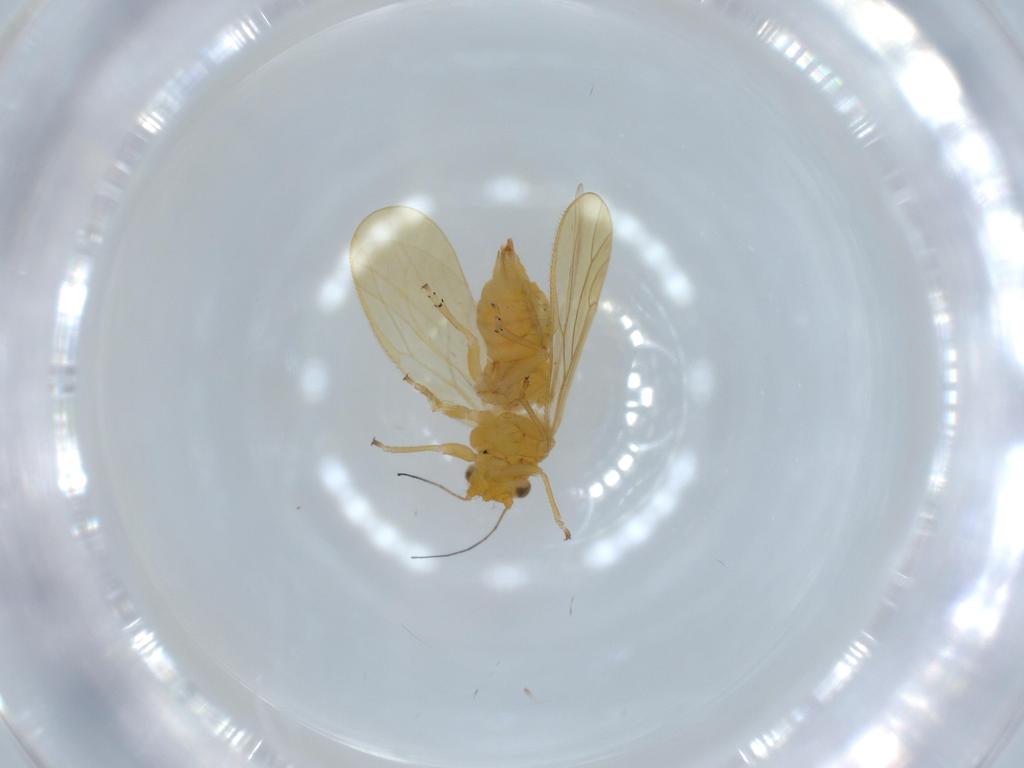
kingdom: Animalia
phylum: Arthropoda
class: Insecta
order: Hemiptera
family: Psyllidae
